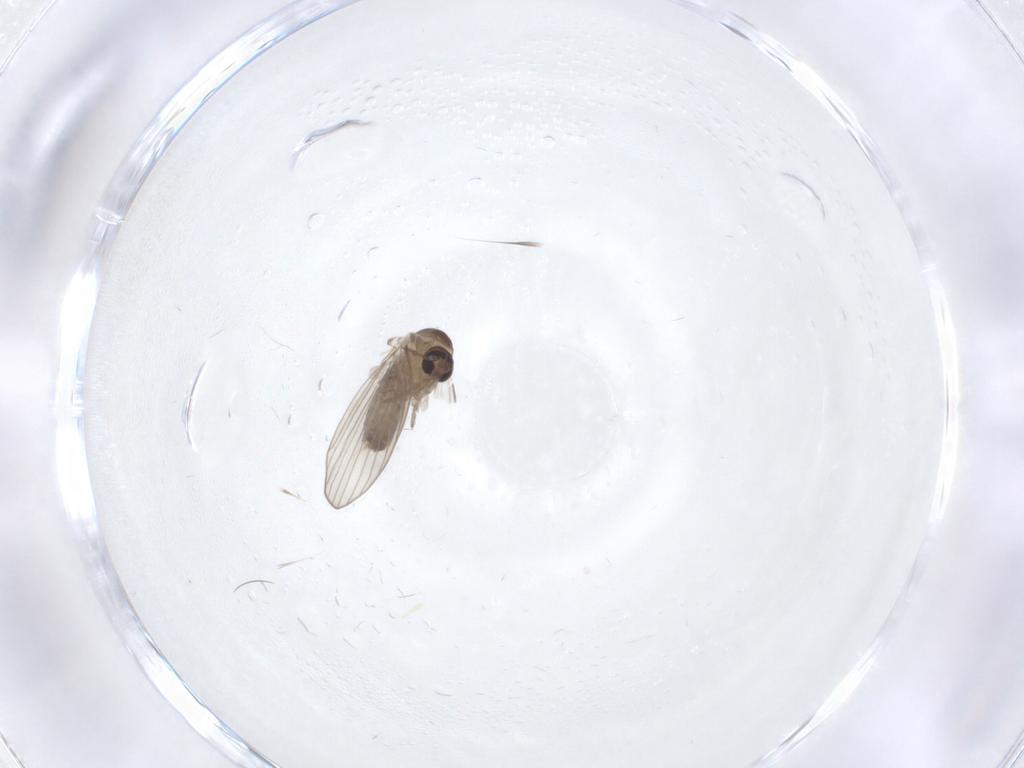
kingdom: Animalia
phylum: Arthropoda
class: Insecta
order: Diptera
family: Psychodidae
